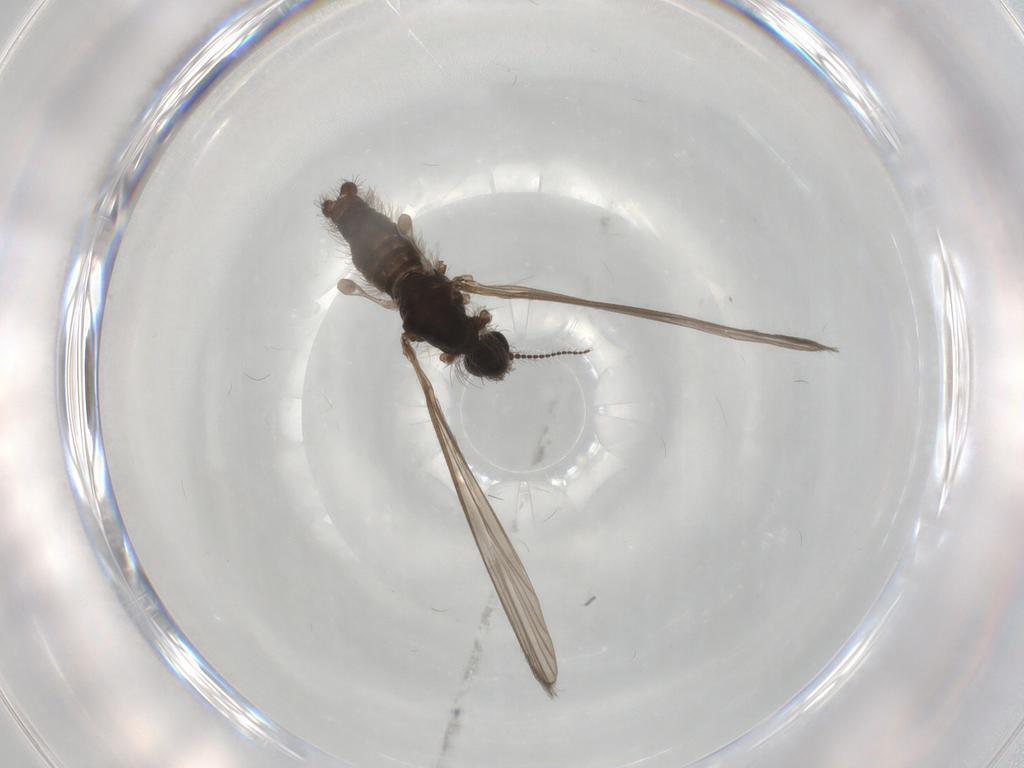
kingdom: Animalia
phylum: Arthropoda
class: Insecta
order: Diptera
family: Limoniidae
